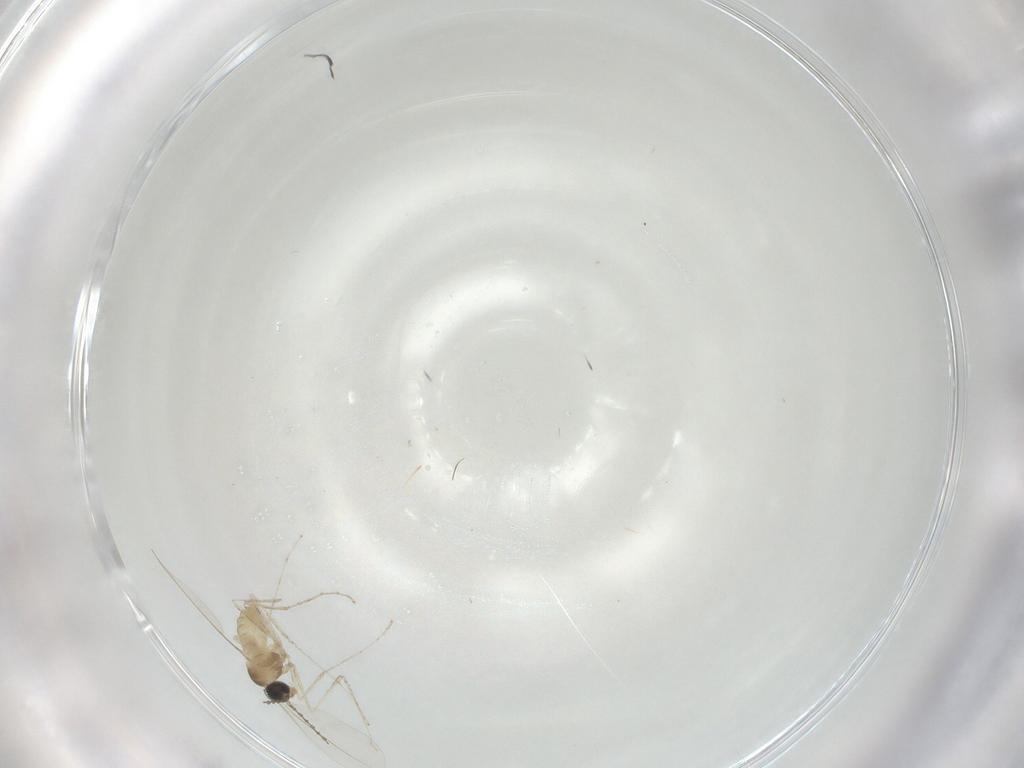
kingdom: Animalia
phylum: Arthropoda
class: Insecta
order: Diptera
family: Cecidomyiidae
